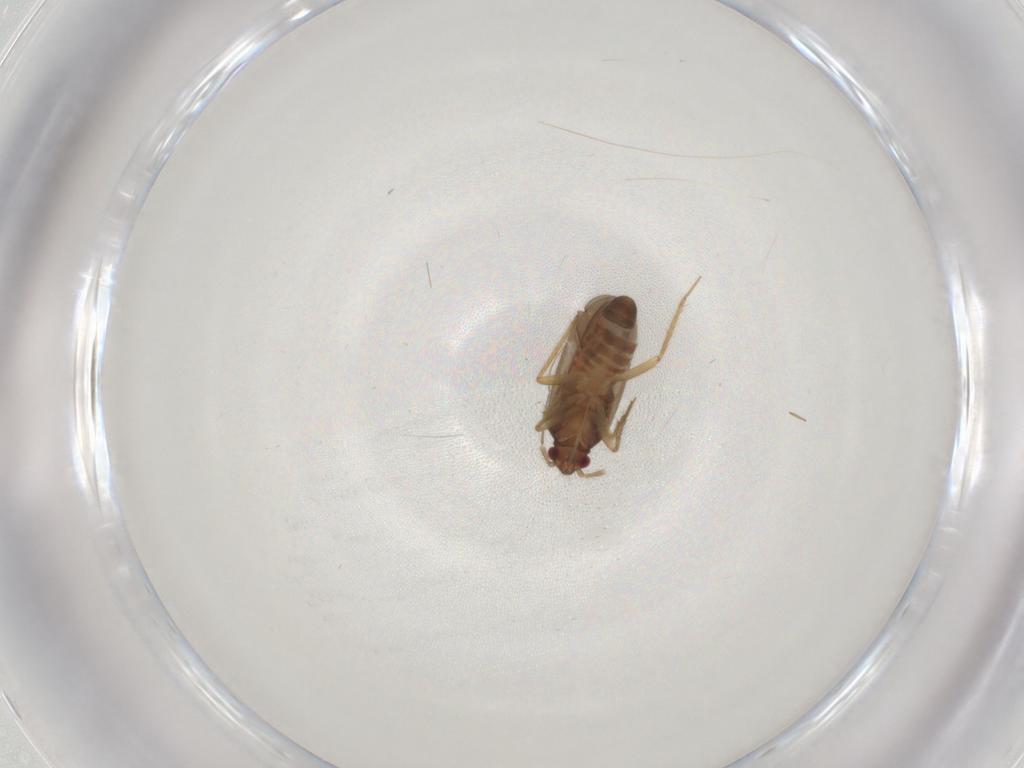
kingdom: Animalia
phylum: Arthropoda
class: Insecta
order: Hemiptera
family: Ceratocombidae
